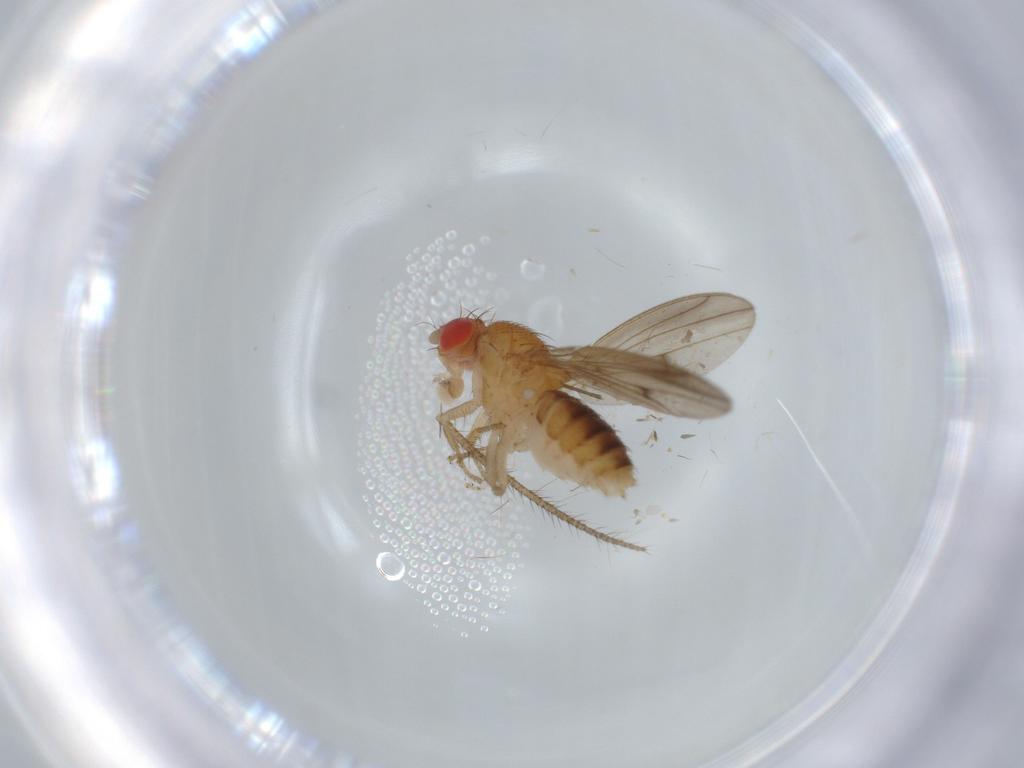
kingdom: Animalia
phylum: Arthropoda
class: Insecta
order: Diptera
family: Drosophilidae
